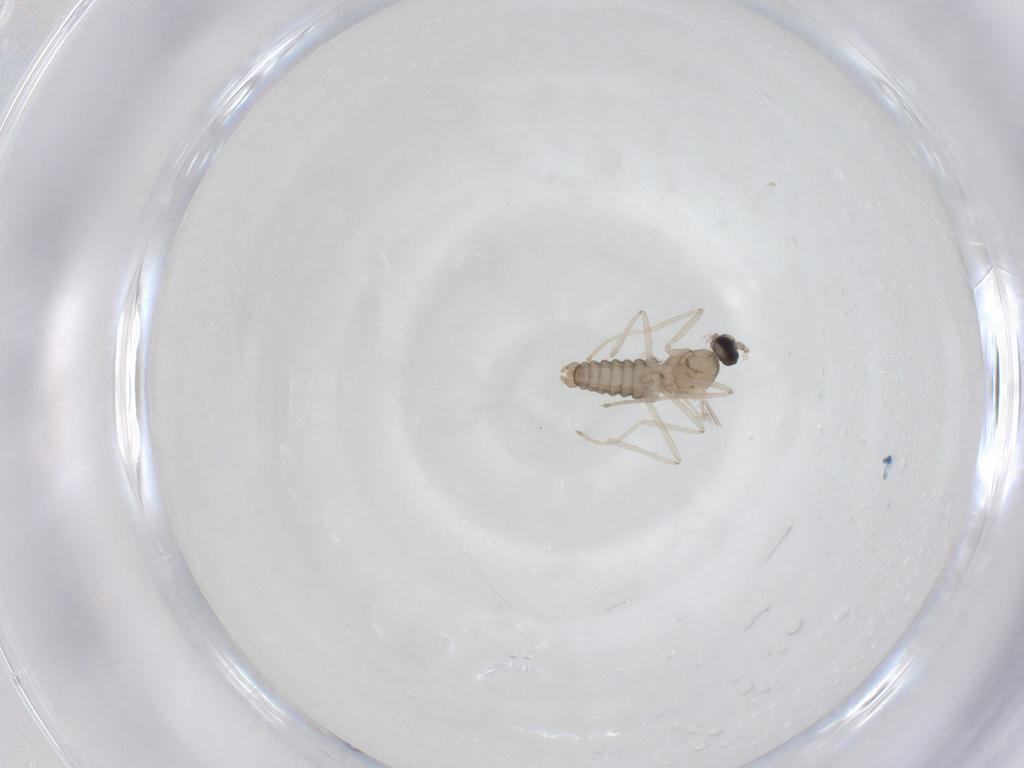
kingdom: Animalia
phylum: Arthropoda
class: Insecta
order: Diptera
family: Cecidomyiidae
